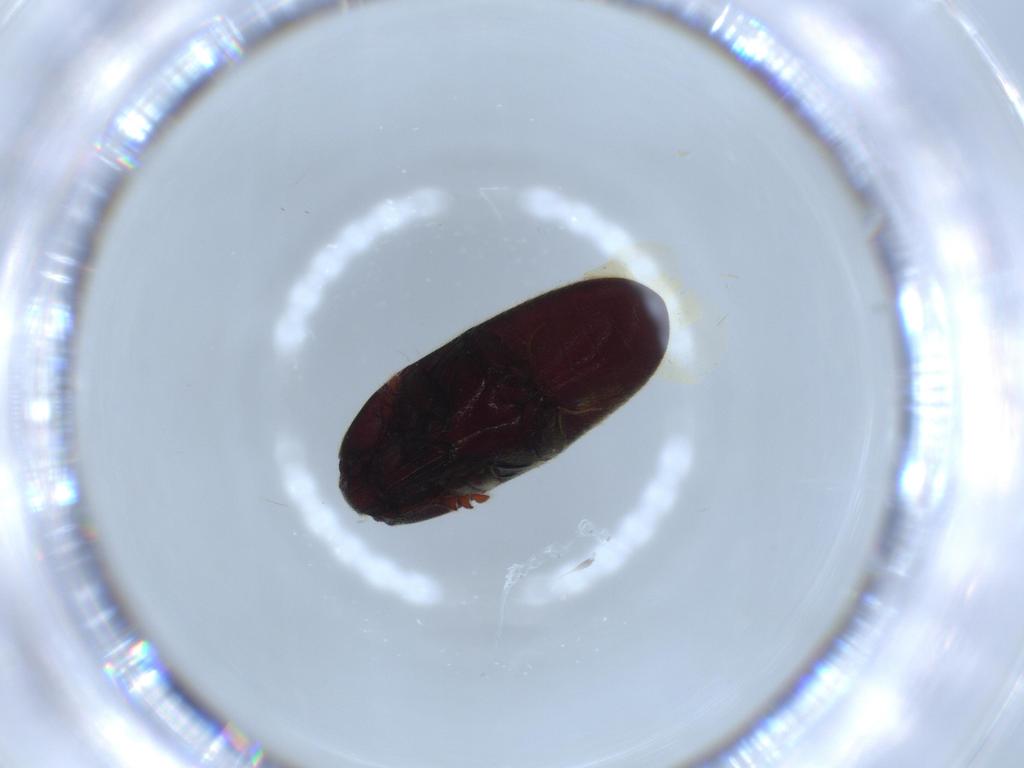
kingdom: Animalia
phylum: Arthropoda
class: Insecta
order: Coleoptera
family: Throscidae
